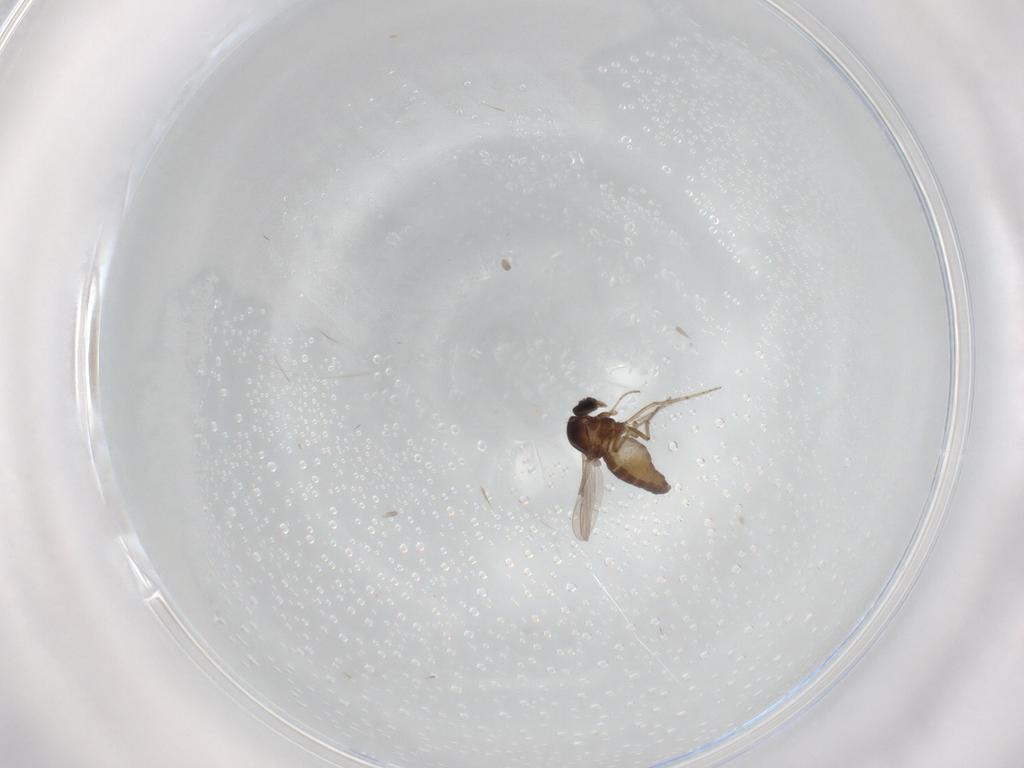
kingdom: Animalia
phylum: Arthropoda
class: Insecta
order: Diptera
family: Ceratopogonidae
